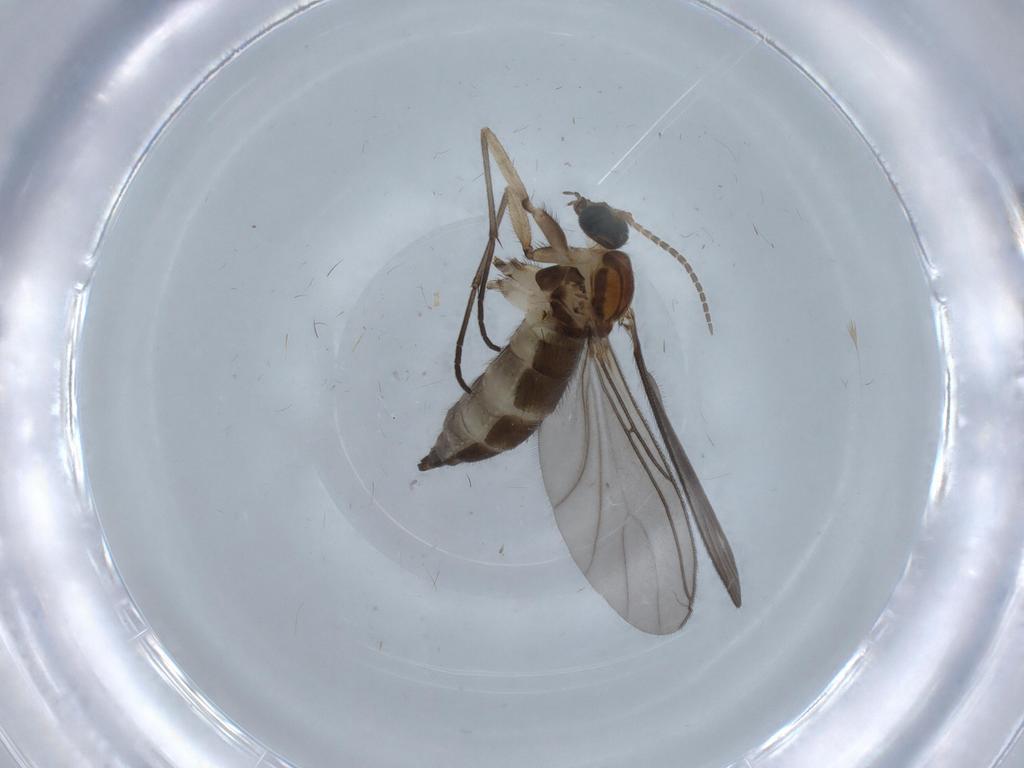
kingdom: Animalia
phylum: Arthropoda
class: Insecta
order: Diptera
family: Sciaridae
